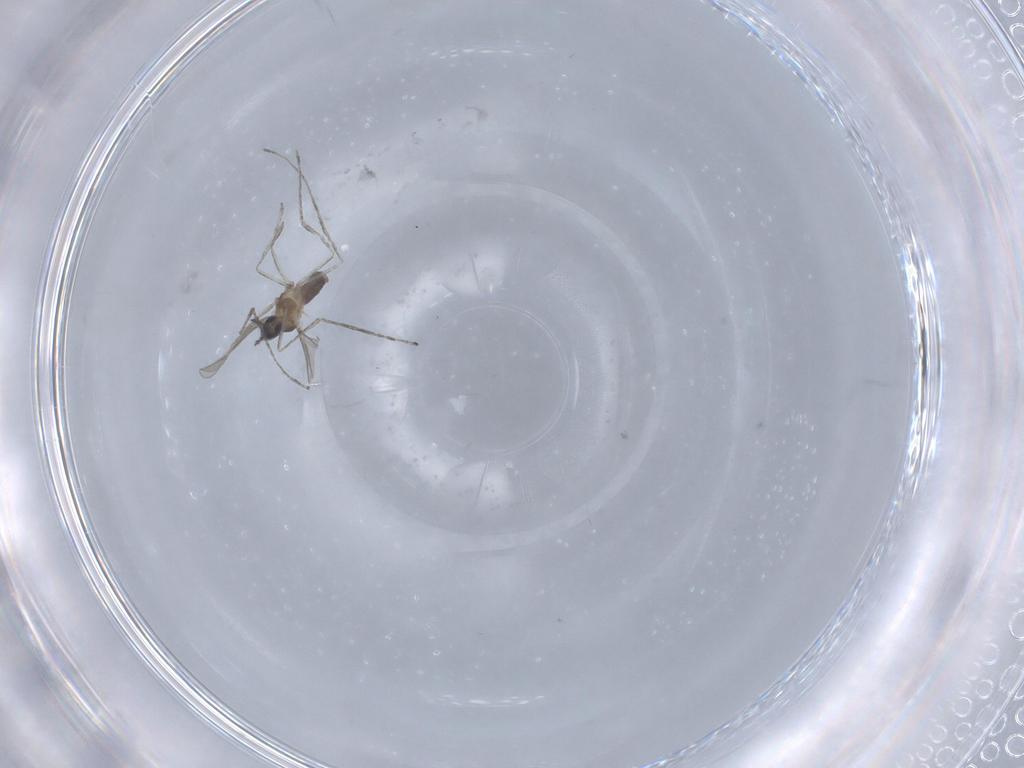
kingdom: Animalia
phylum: Arthropoda
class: Insecta
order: Diptera
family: Cecidomyiidae
